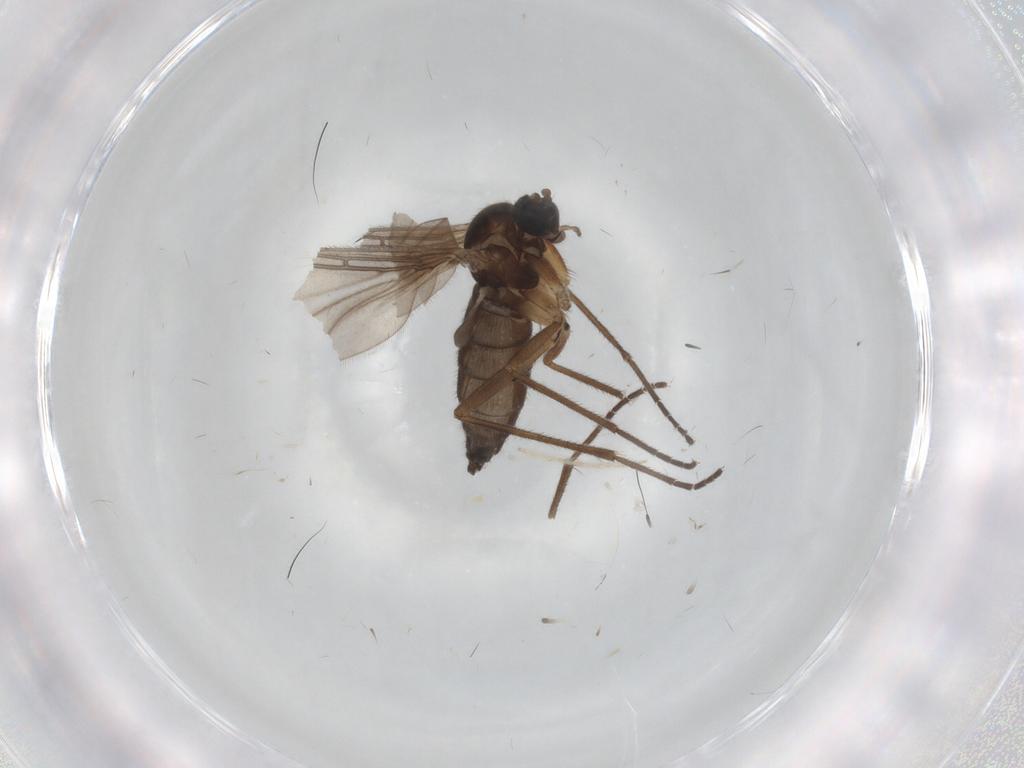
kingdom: Animalia
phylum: Arthropoda
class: Insecta
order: Diptera
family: Sciaridae
